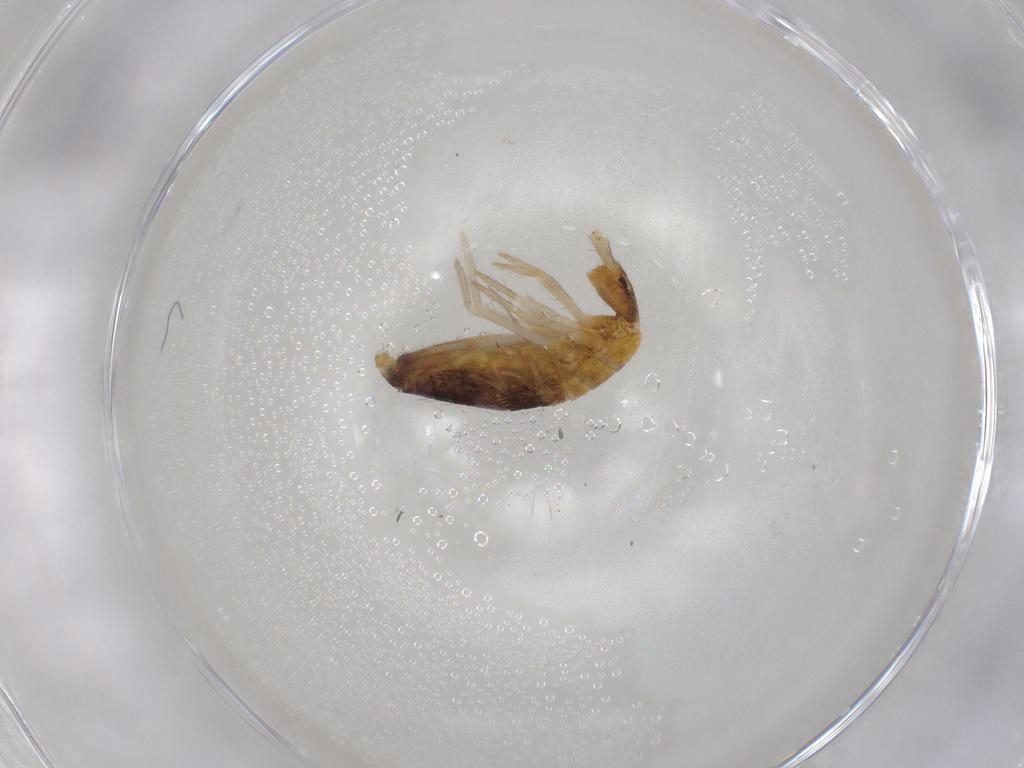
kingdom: Animalia
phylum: Arthropoda
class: Collembola
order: Entomobryomorpha
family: Entomobryidae
